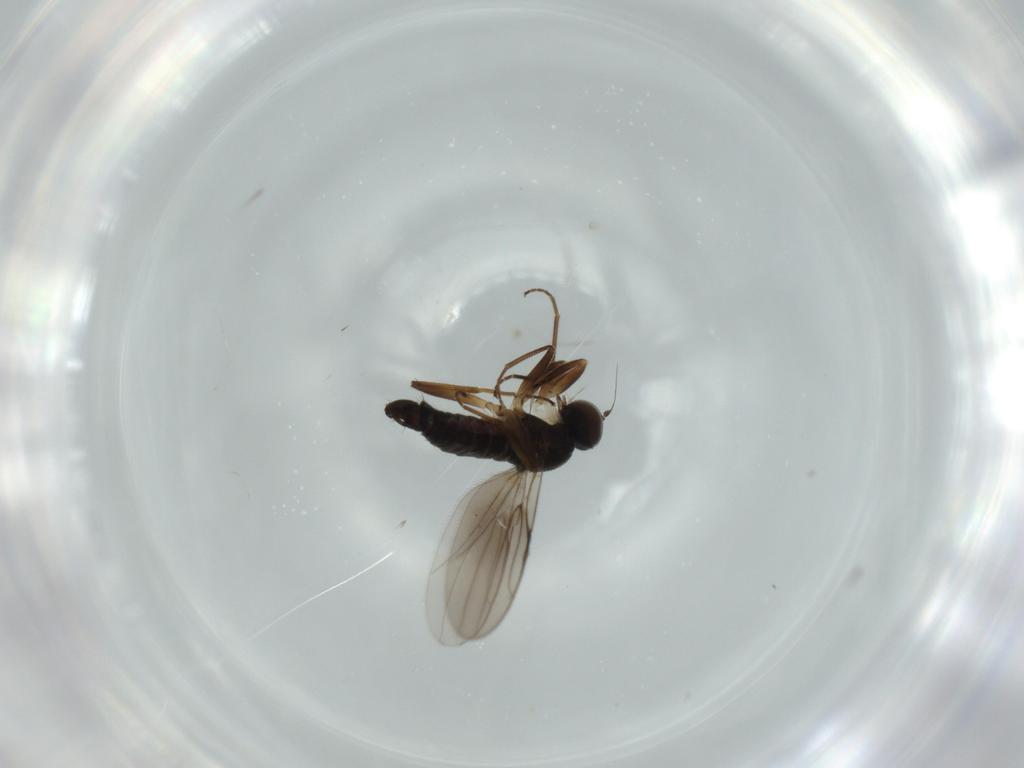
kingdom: Animalia
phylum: Arthropoda
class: Insecta
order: Diptera
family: Hybotidae
